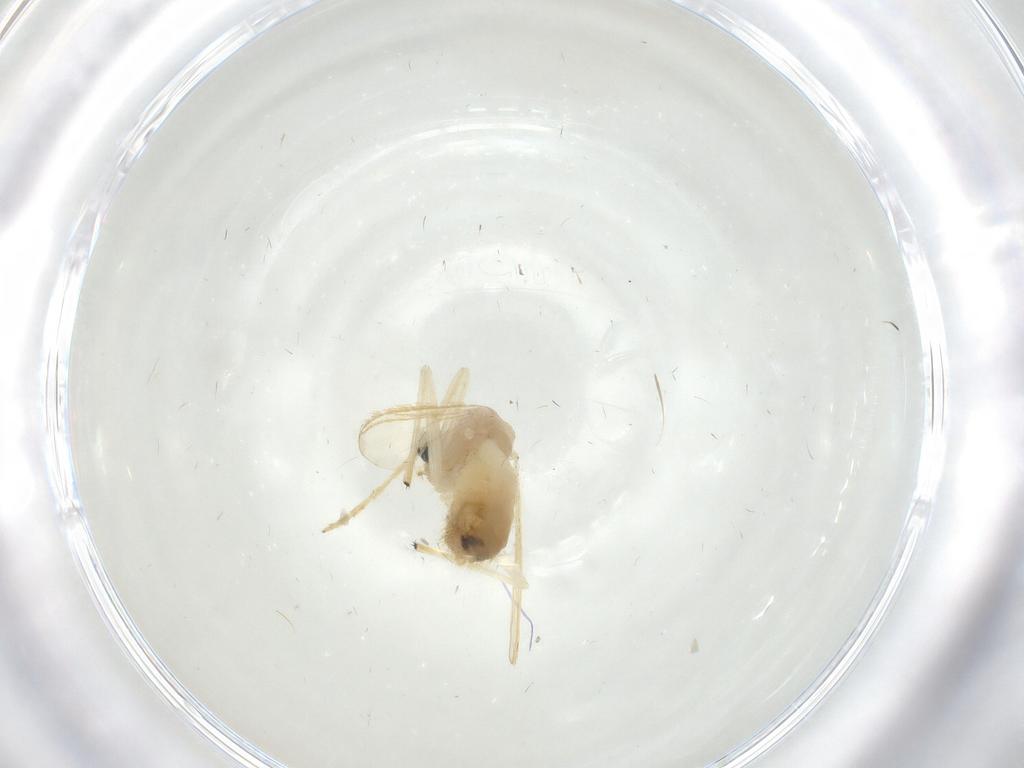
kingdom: Animalia
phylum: Arthropoda
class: Insecta
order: Diptera
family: Chironomidae
